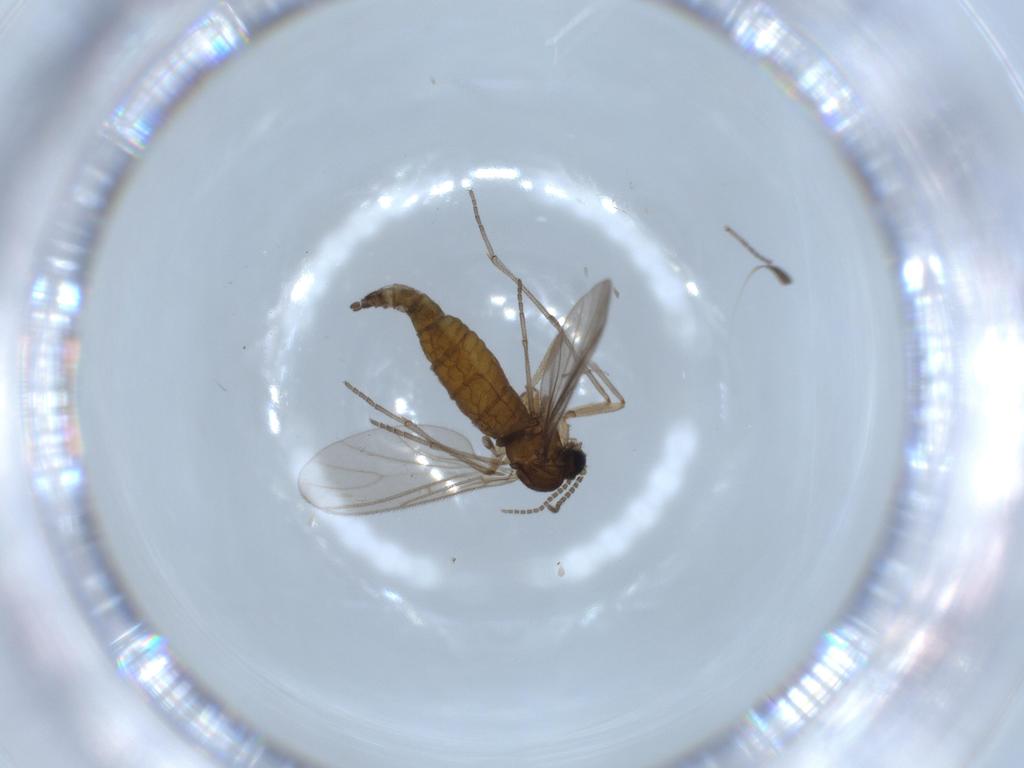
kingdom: Animalia
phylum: Arthropoda
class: Insecta
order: Diptera
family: Sciaridae
